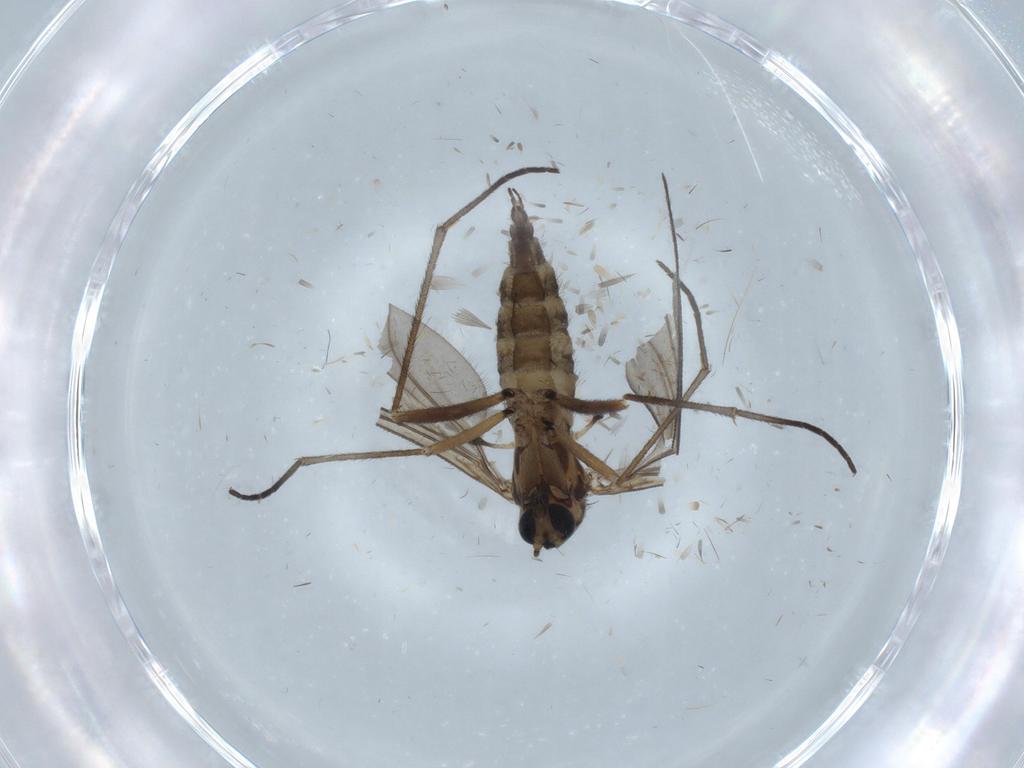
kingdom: Animalia
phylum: Arthropoda
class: Insecta
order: Diptera
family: Sciaridae
